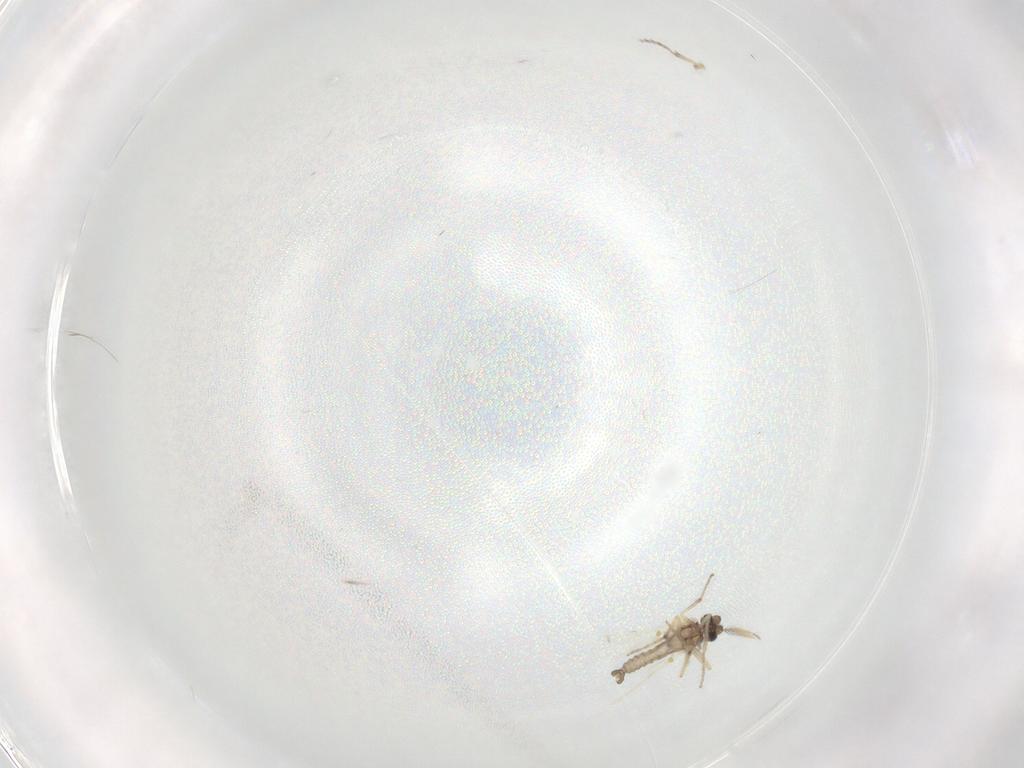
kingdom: Animalia
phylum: Arthropoda
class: Insecta
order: Diptera
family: Ceratopogonidae
